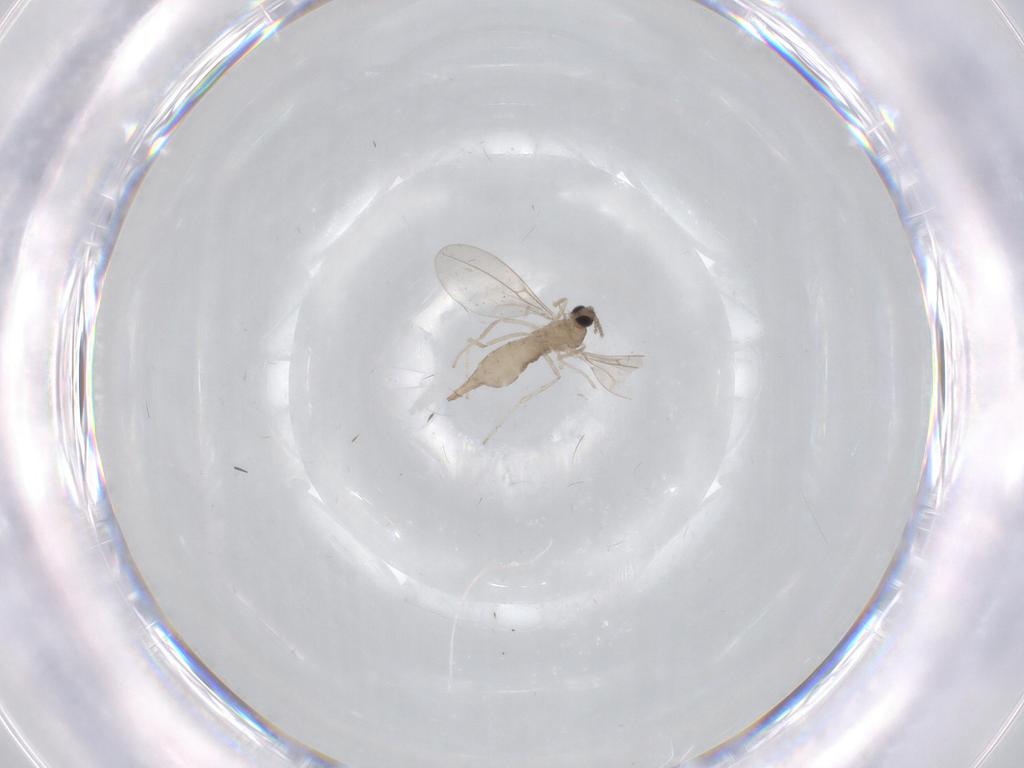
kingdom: Animalia
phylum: Arthropoda
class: Insecta
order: Diptera
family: Cecidomyiidae
